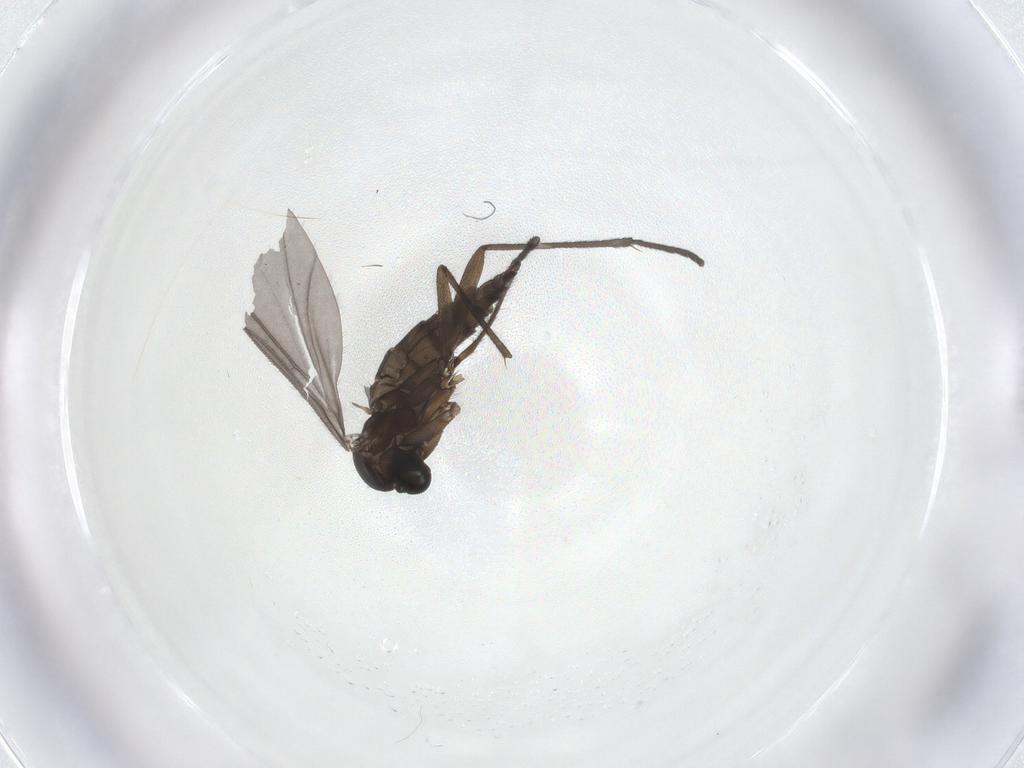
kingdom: Animalia
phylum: Arthropoda
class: Insecta
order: Diptera
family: Sciaridae
